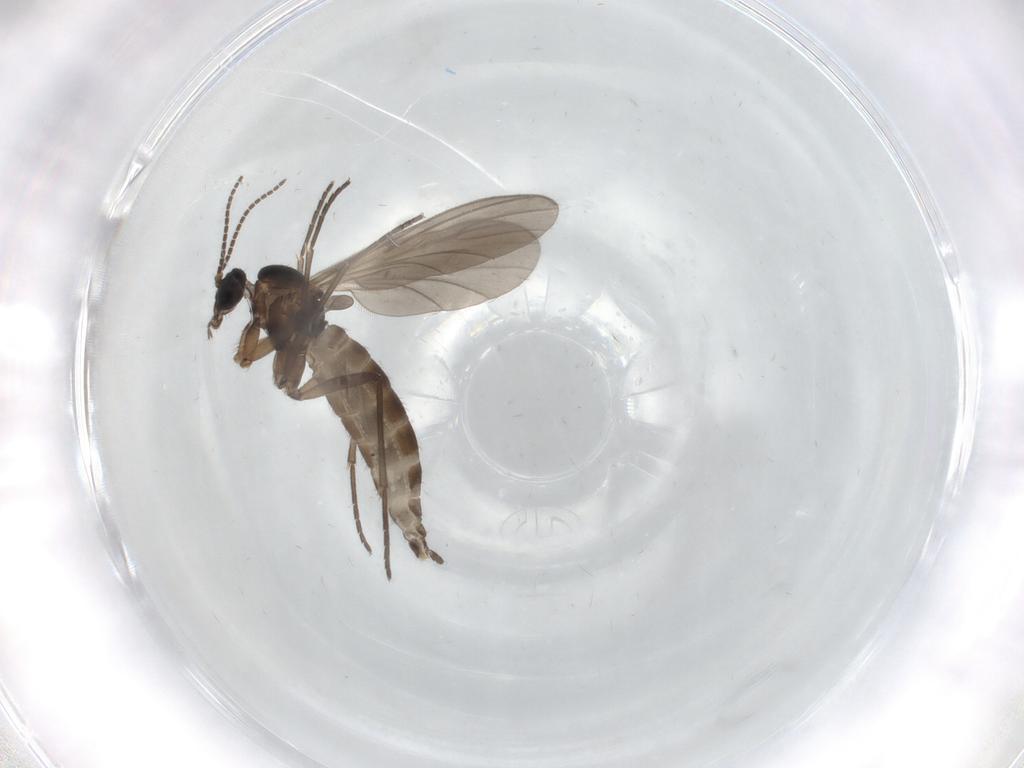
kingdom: Animalia
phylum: Arthropoda
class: Insecta
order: Diptera
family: Sciaridae
